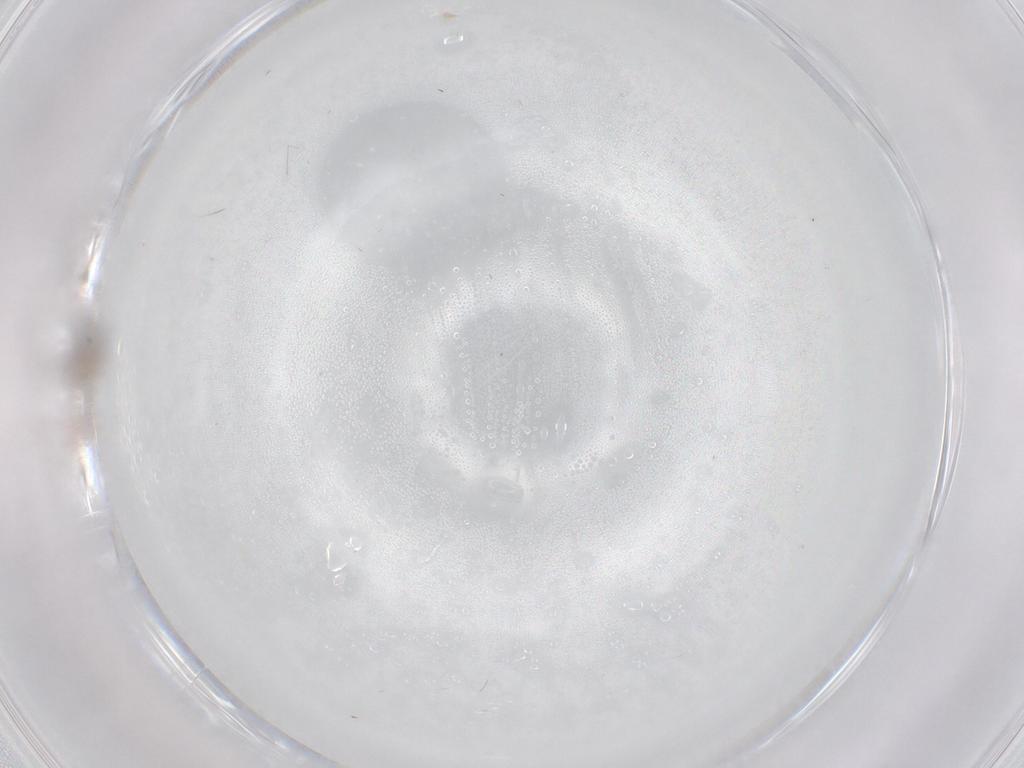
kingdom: Animalia
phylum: Arthropoda
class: Insecta
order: Diptera
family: Cecidomyiidae
